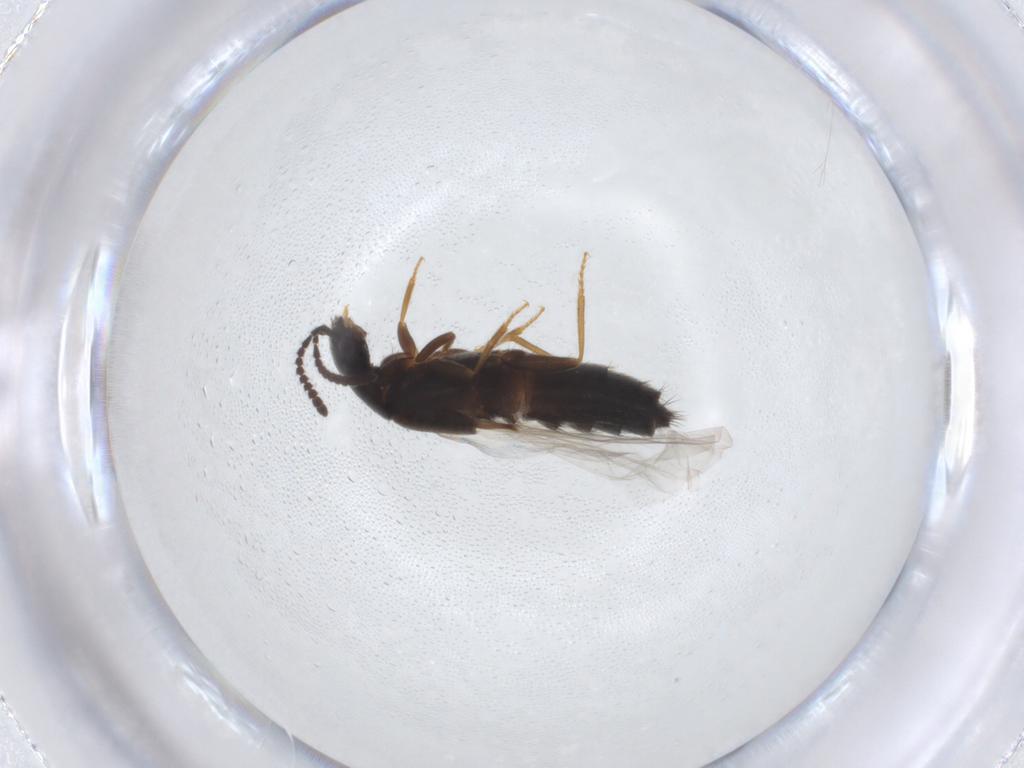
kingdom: Animalia
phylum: Arthropoda
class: Insecta
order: Coleoptera
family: Staphylinidae
